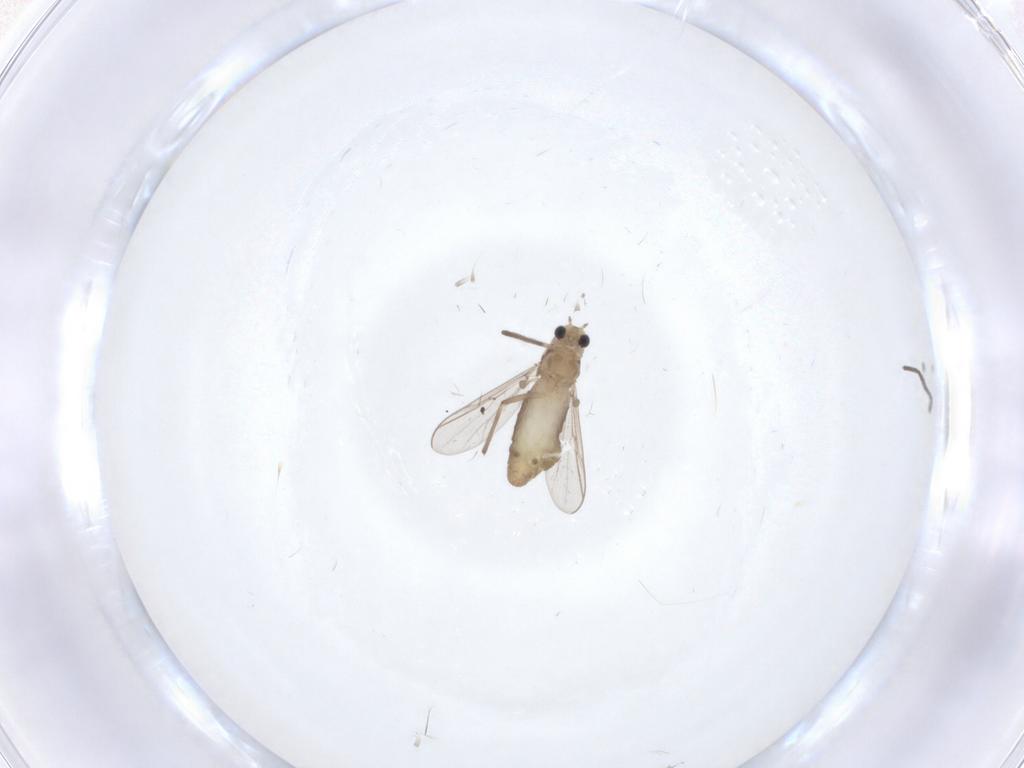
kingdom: Animalia
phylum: Arthropoda
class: Insecta
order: Diptera
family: Chironomidae
